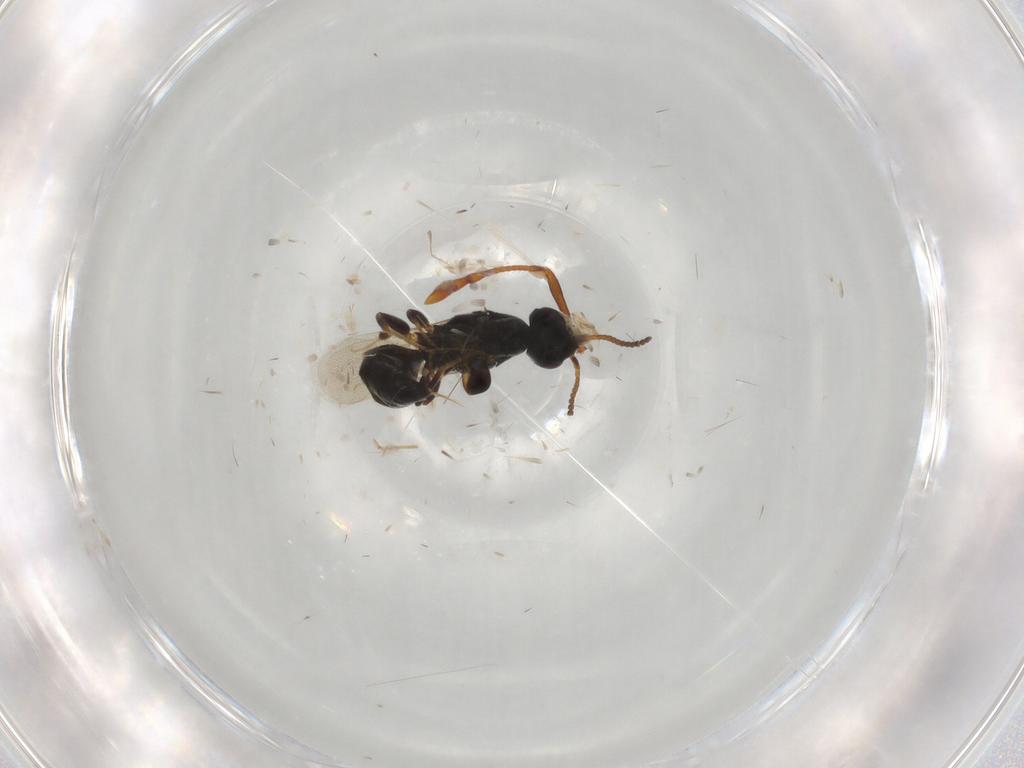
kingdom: Animalia
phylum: Arthropoda
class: Insecta
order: Hymenoptera
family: Bethylidae
